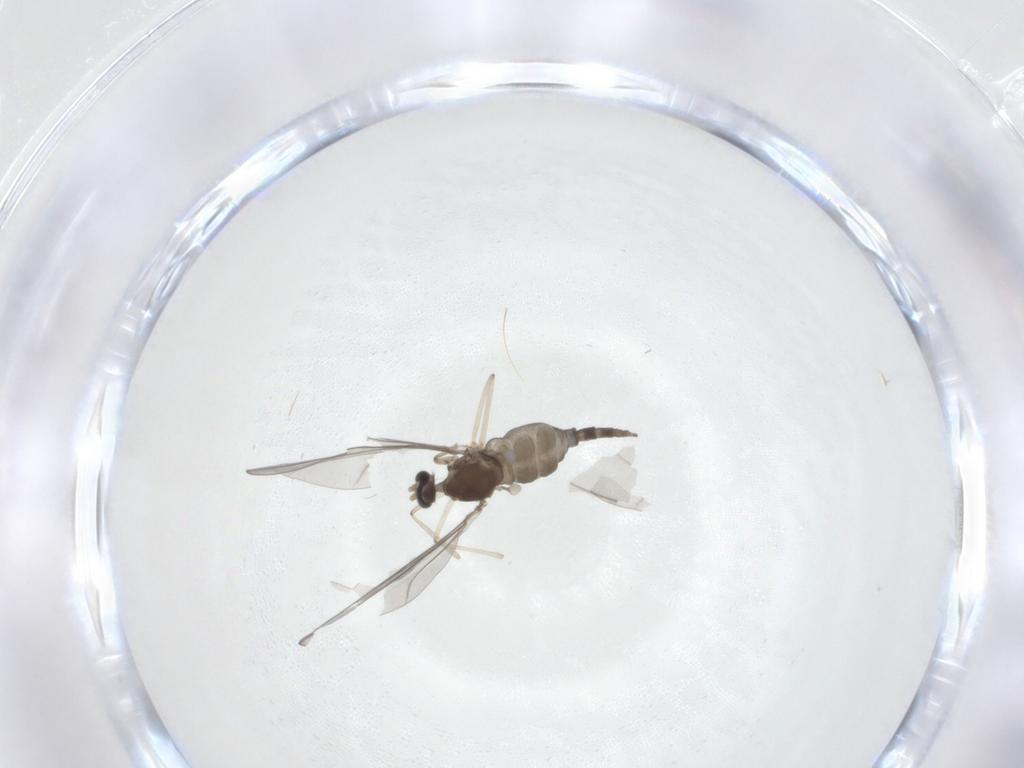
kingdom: Animalia
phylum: Arthropoda
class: Insecta
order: Diptera
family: Cecidomyiidae
